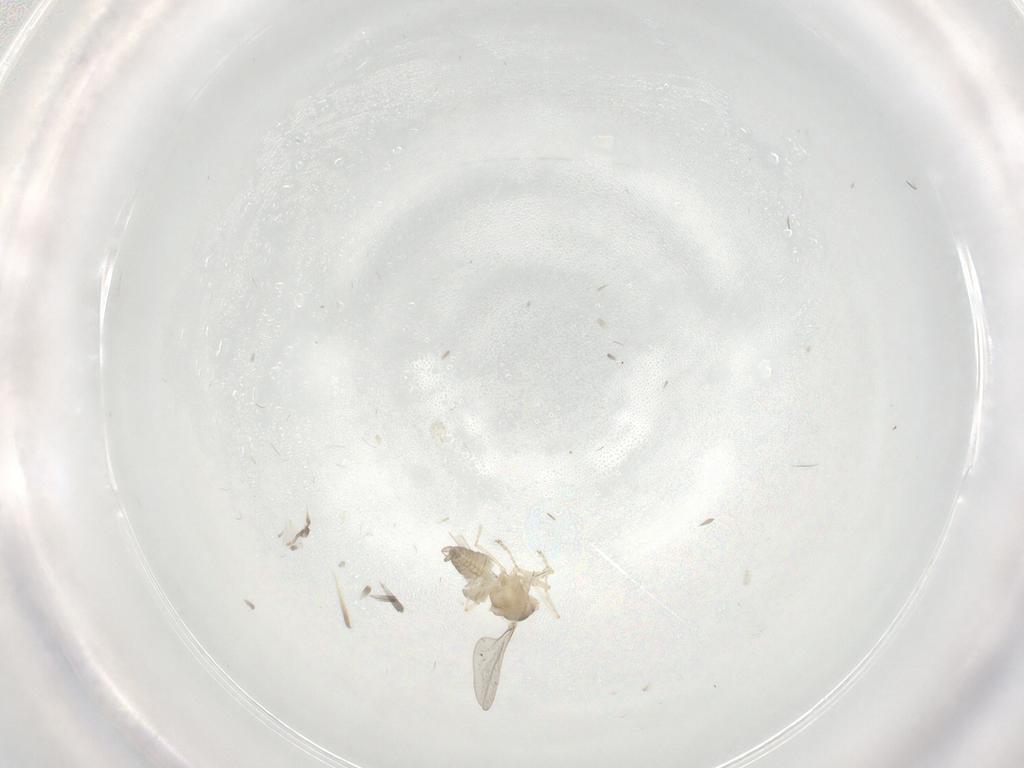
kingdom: Animalia
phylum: Arthropoda
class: Insecta
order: Diptera
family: Cecidomyiidae
